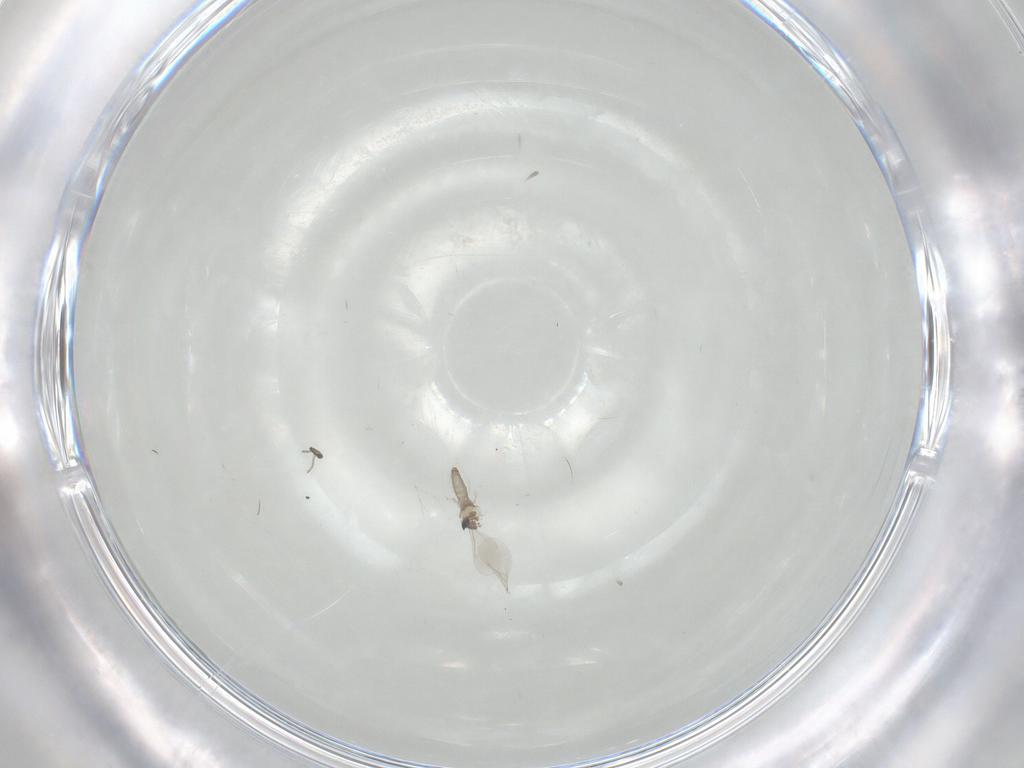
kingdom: Animalia
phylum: Arthropoda
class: Insecta
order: Diptera
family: Cecidomyiidae
